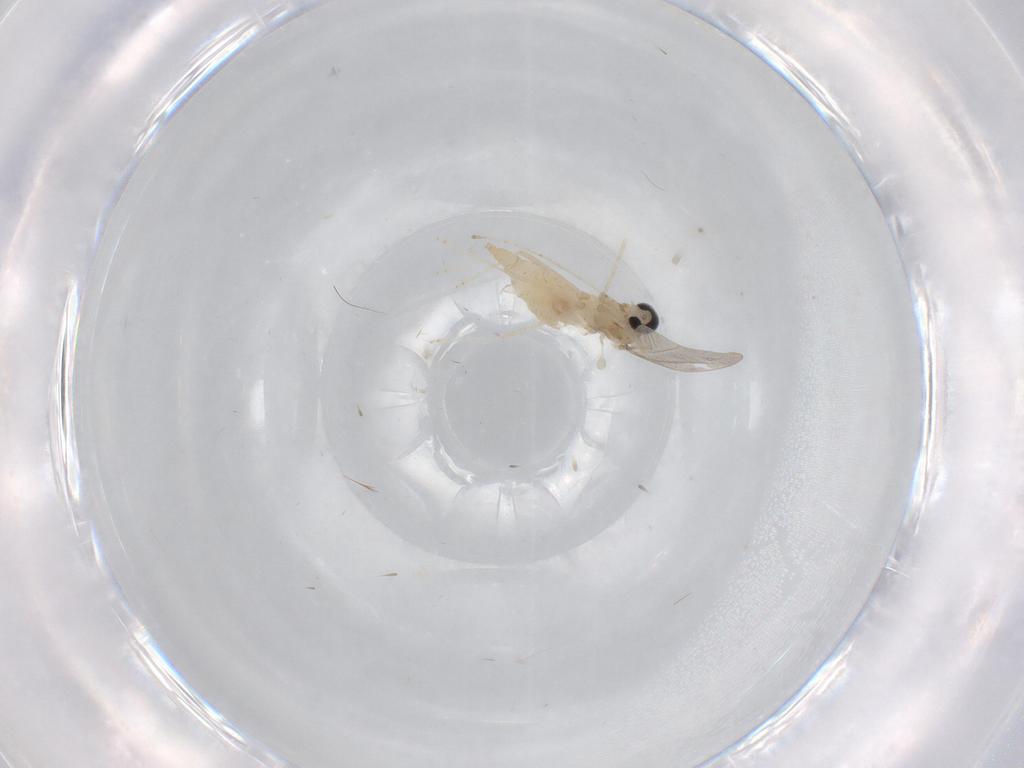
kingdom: Animalia
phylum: Arthropoda
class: Insecta
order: Diptera
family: Cecidomyiidae
